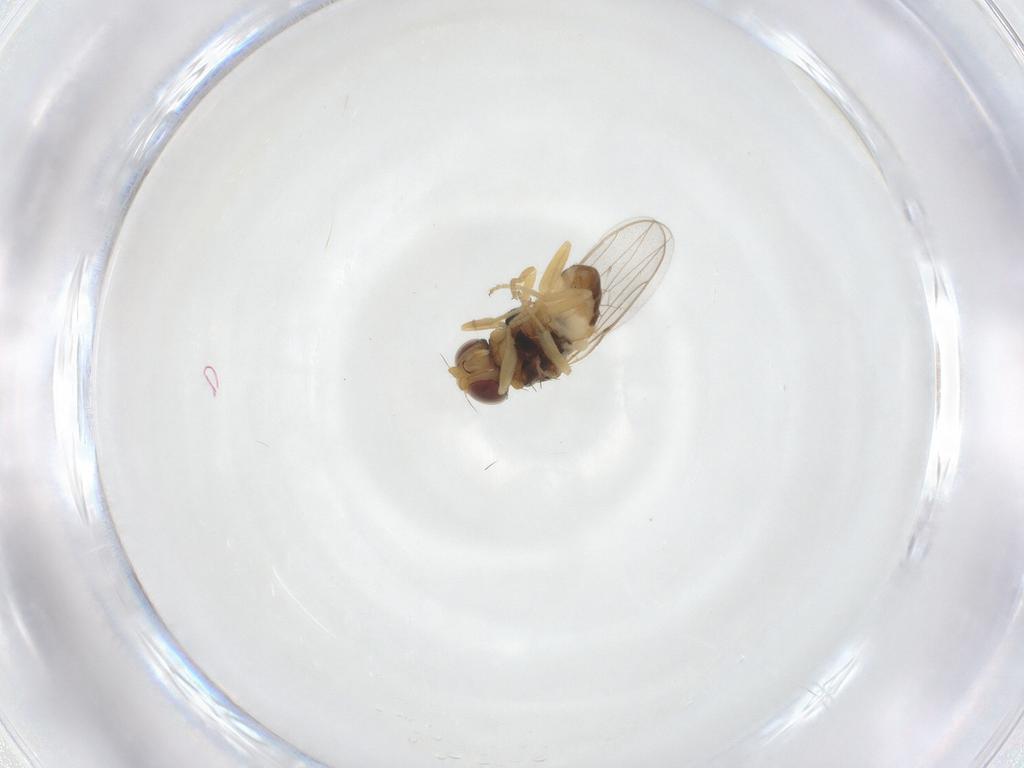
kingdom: Animalia
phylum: Arthropoda
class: Insecta
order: Diptera
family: Chloropidae
